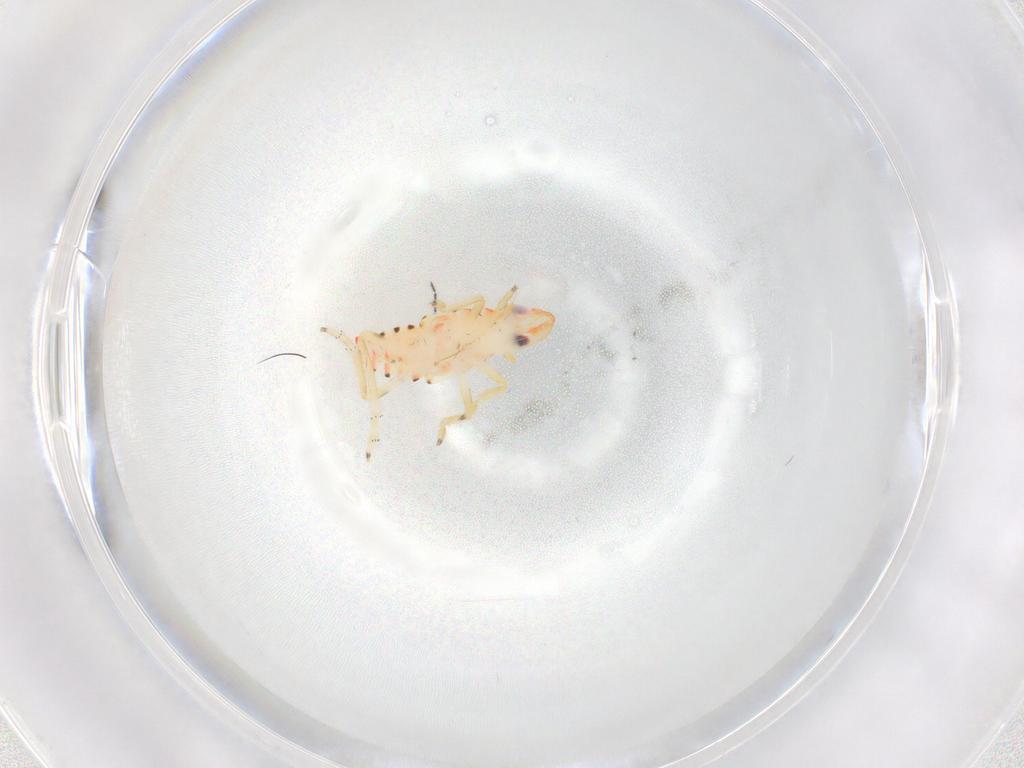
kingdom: Animalia
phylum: Arthropoda
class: Insecta
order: Hemiptera
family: Tropiduchidae
